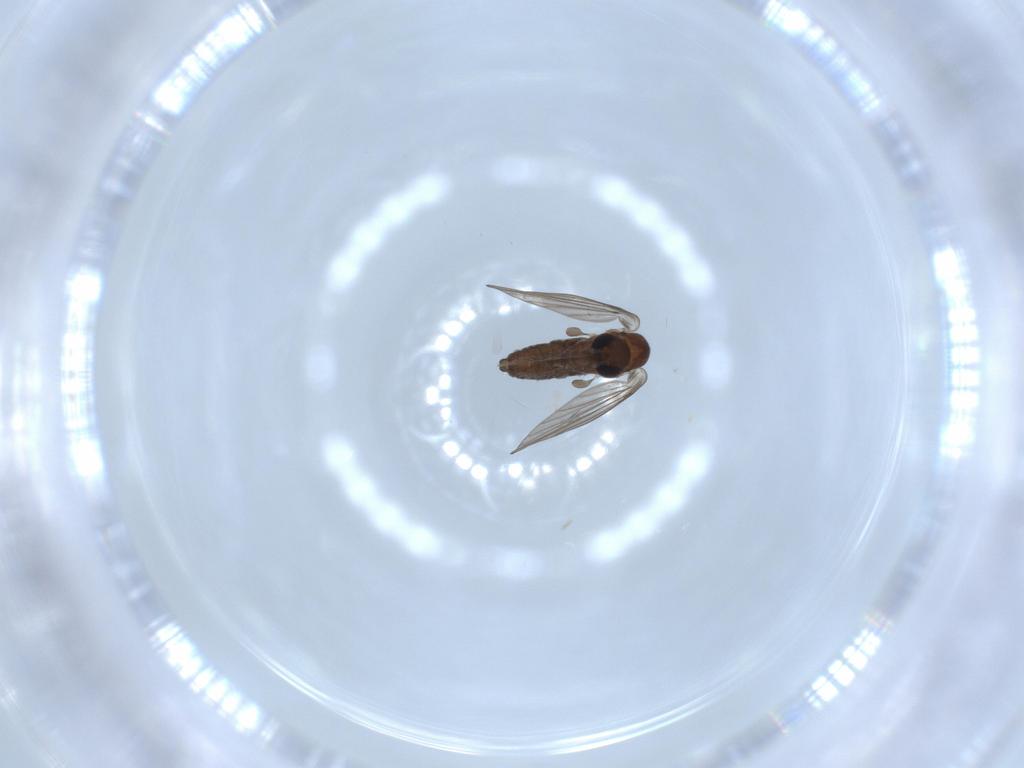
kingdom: Animalia
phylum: Arthropoda
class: Insecta
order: Diptera
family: Psychodidae
